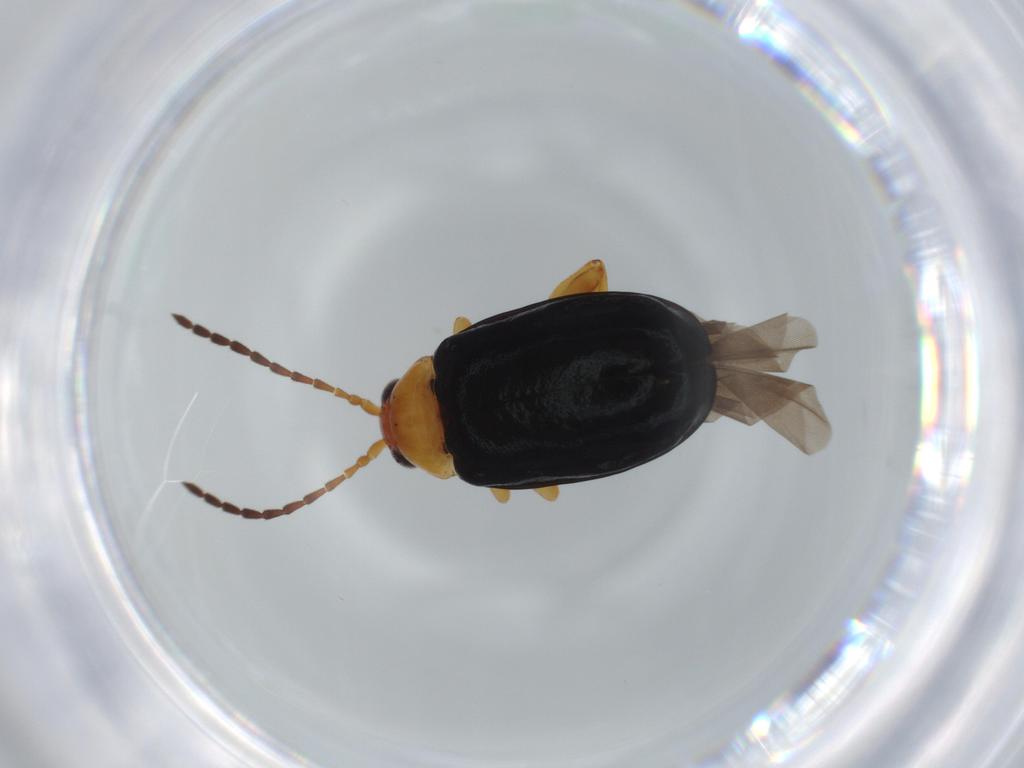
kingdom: Animalia
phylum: Arthropoda
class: Insecta
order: Coleoptera
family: Chrysomelidae
